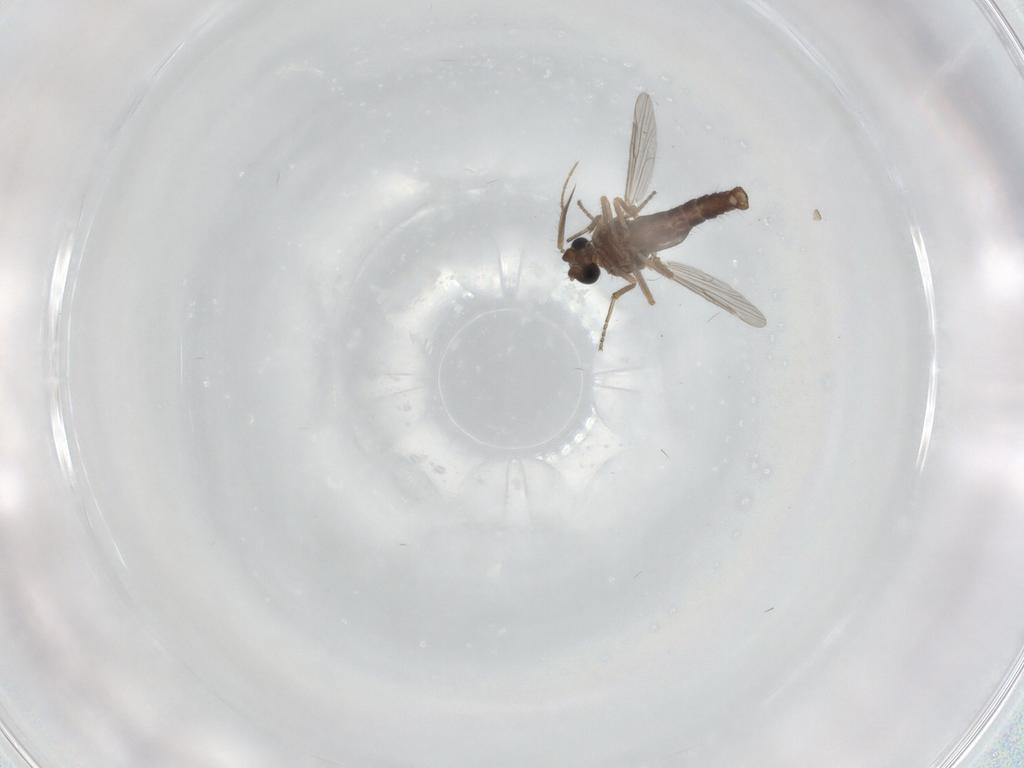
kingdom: Animalia
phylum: Arthropoda
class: Insecta
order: Diptera
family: Ceratopogonidae
